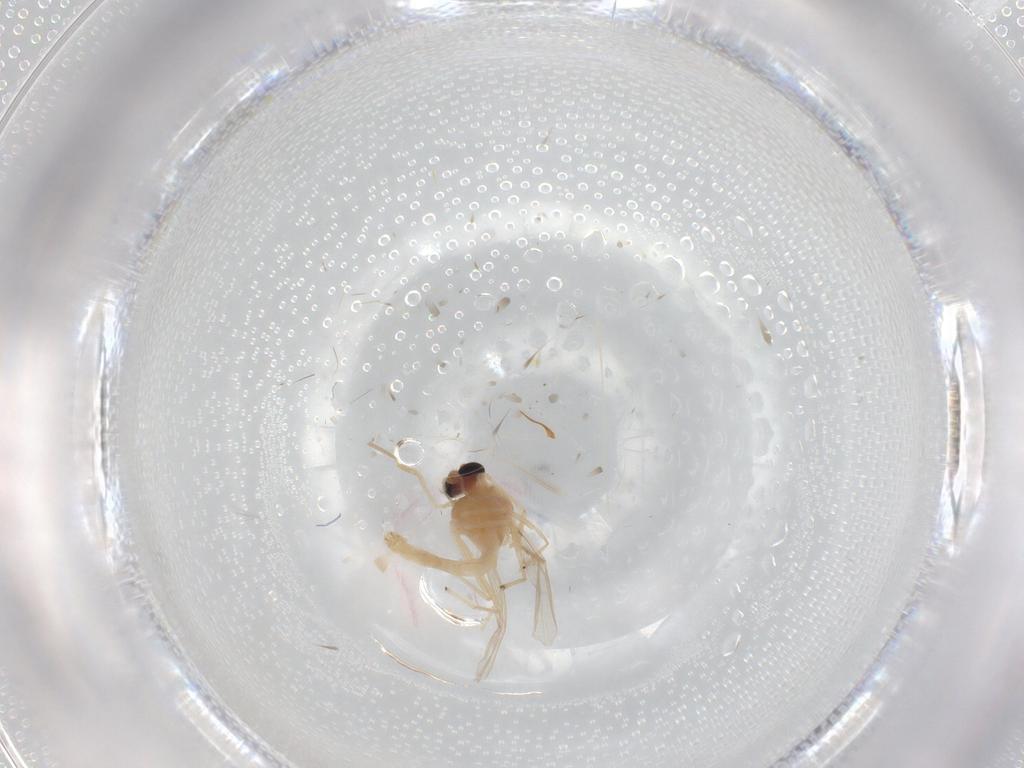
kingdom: Animalia
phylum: Arthropoda
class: Insecta
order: Diptera
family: Chironomidae
